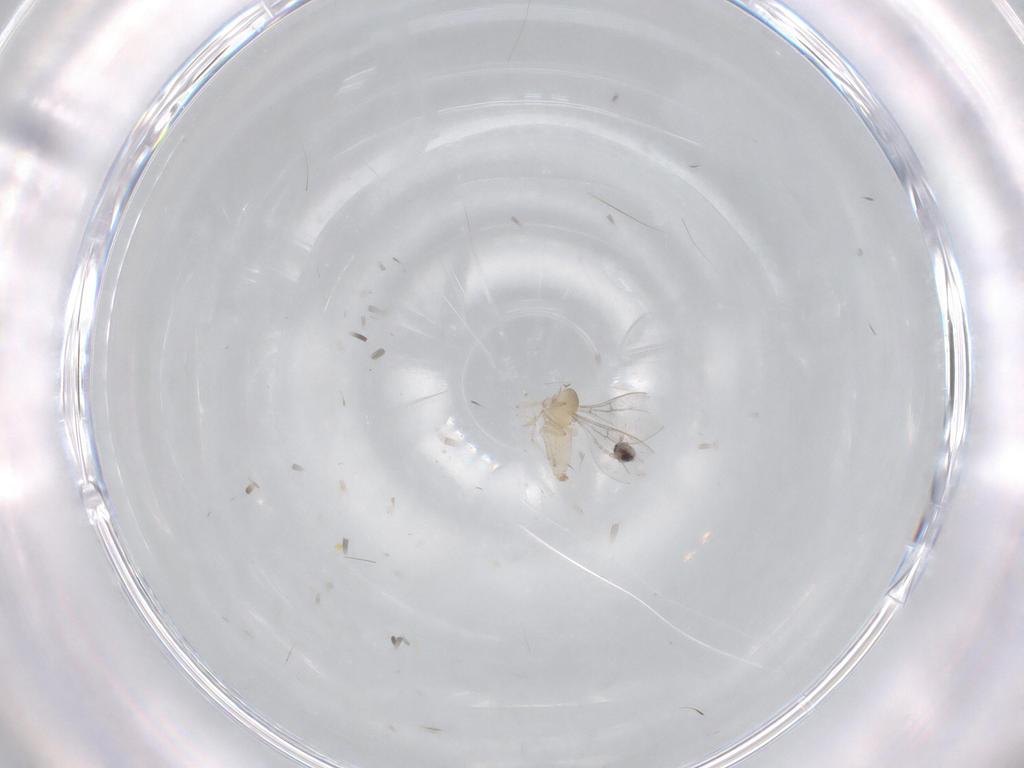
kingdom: Animalia
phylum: Arthropoda
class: Insecta
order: Diptera
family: Cecidomyiidae
